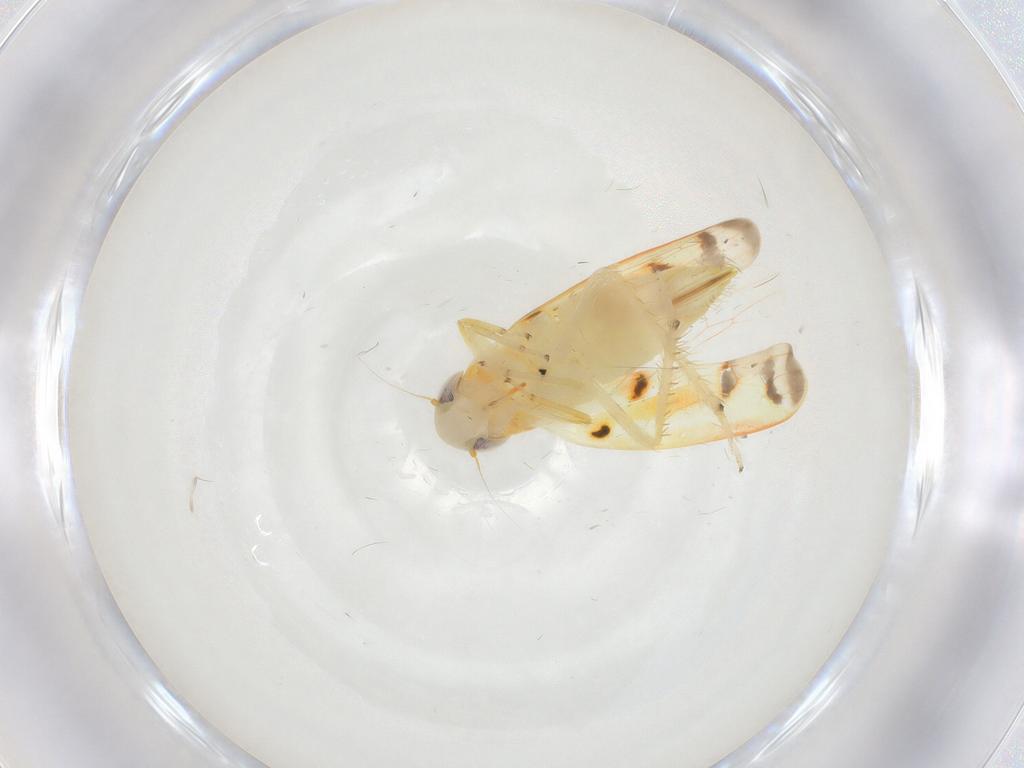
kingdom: Animalia
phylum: Arthropoda
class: Insecta
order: Hemiptera
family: Cicadellidae
